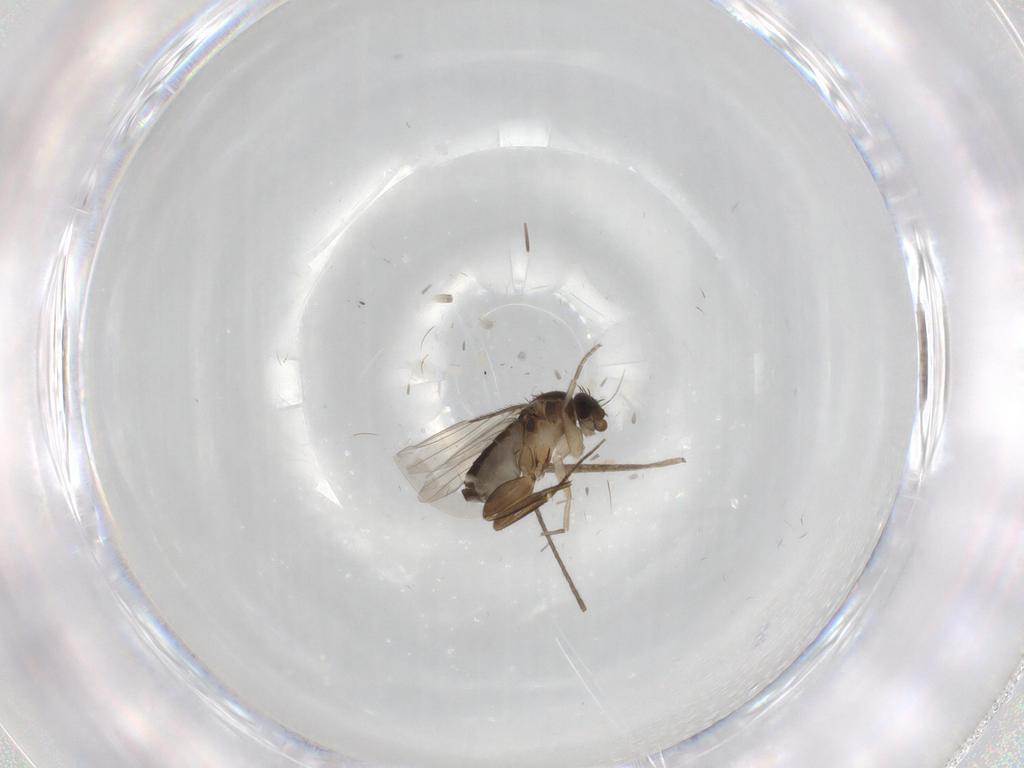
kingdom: Animalia
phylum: Arthropoda
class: Insecta
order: Diptera
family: Phoridae
